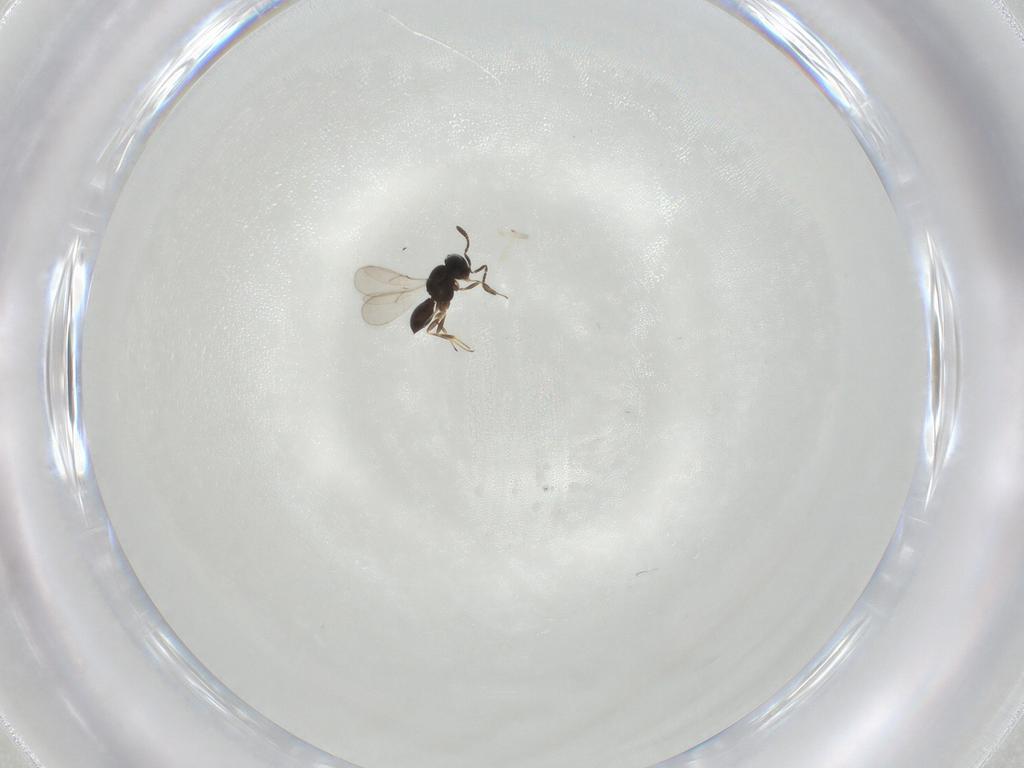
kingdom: Animalia
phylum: Arthropoda
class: Insecta
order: Hymenoptera
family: Scelionidae
